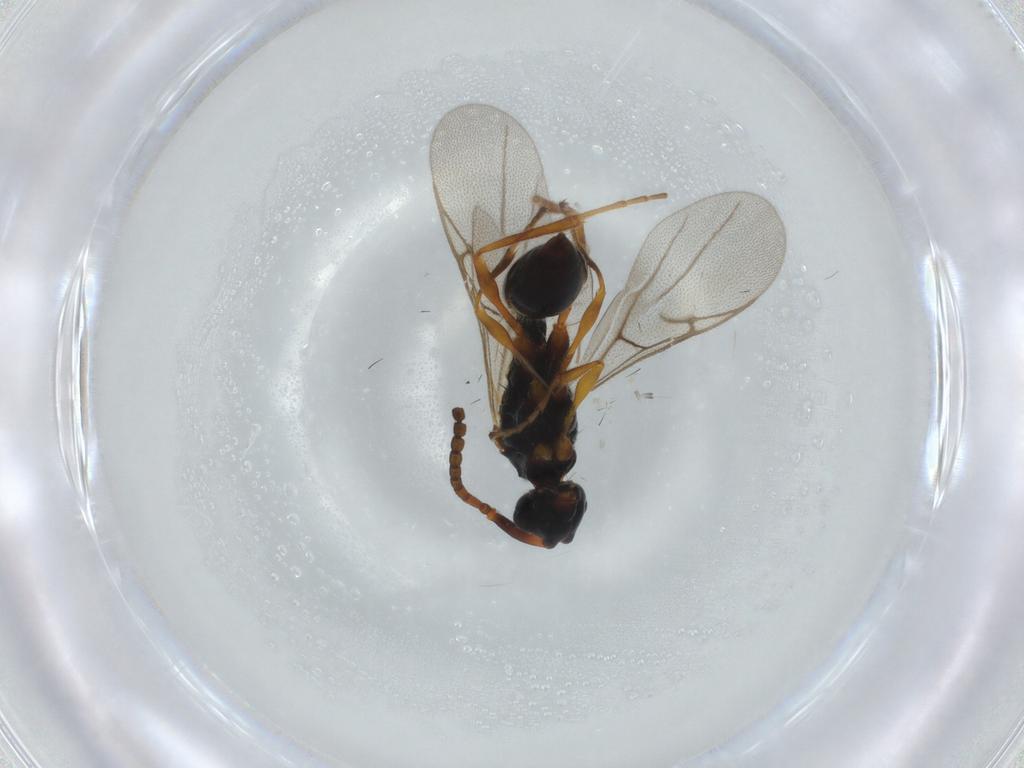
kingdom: Animalia
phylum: Arthropoda
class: Insecta
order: Hymenoptera
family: Diapriidae
